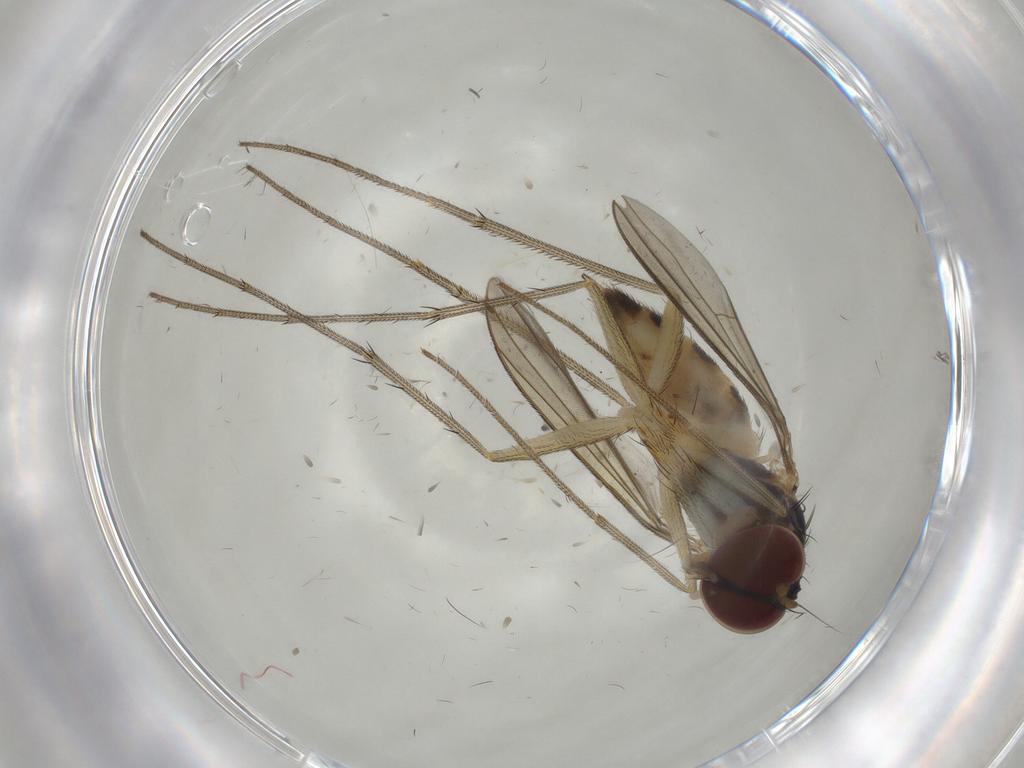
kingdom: Animalia
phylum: Arthropoda
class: Insecta
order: Diptera
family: Dolichopodidae
